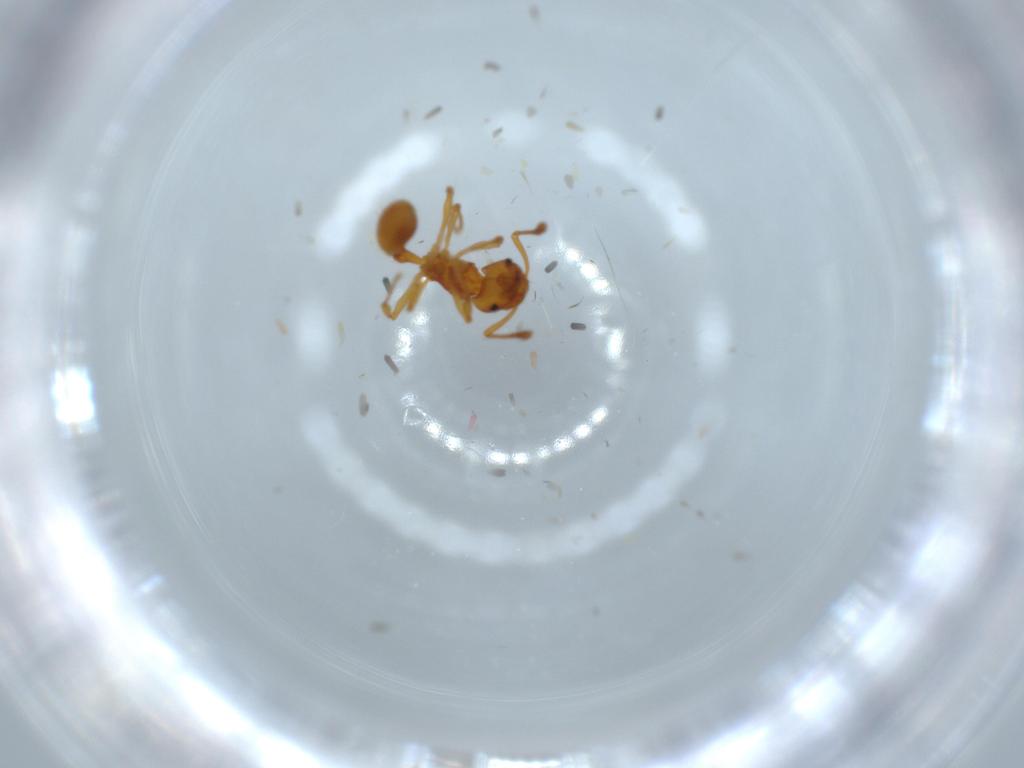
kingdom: Animalia
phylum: Arthropoda
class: Insecta
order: Hymenoptera
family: Formicidae
